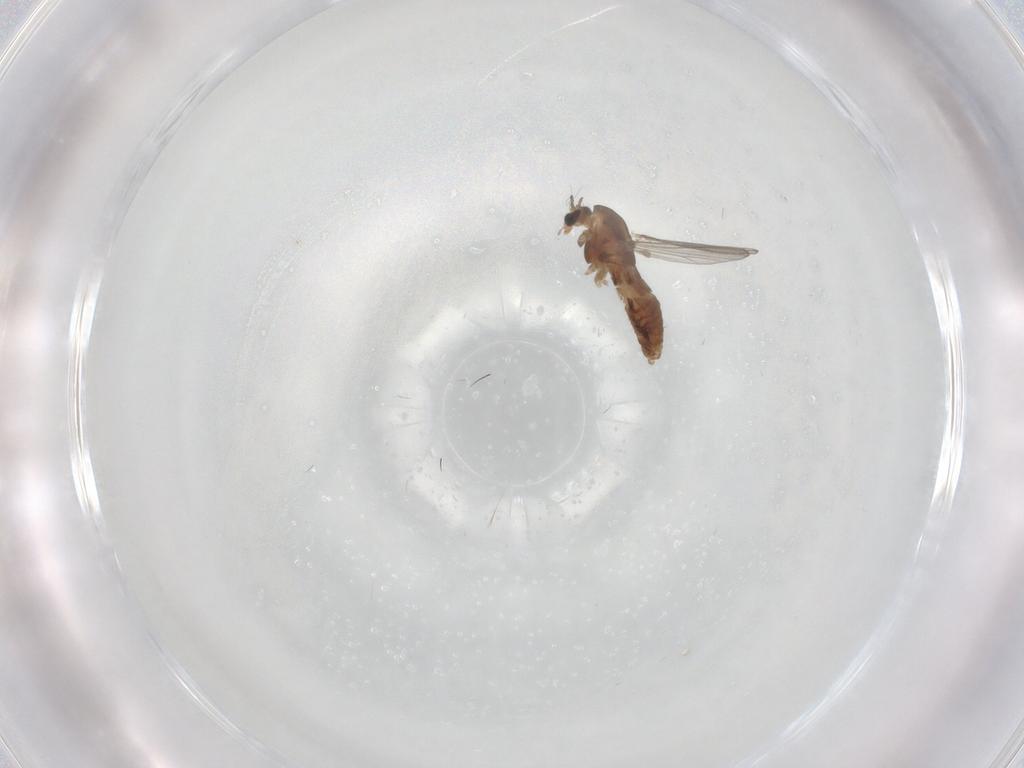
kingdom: Animalia
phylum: Arthropoda
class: Insecta
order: Diptera
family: Chironomidae
